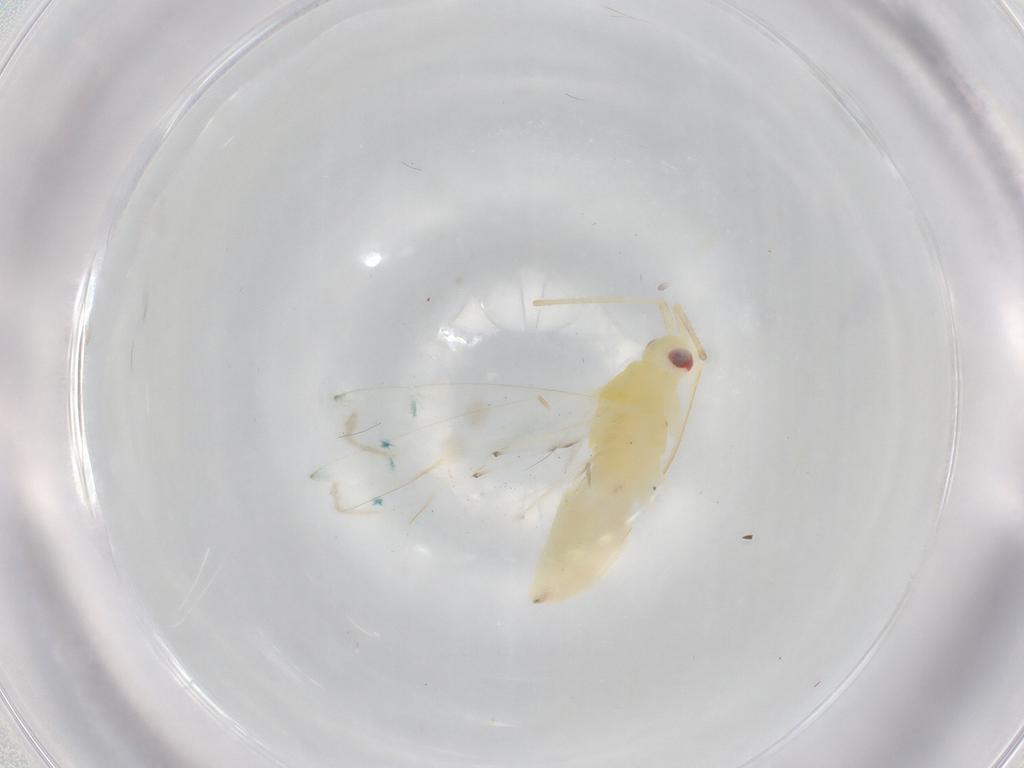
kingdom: Animalia
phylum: Arthropoda
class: Insecta
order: Hemiptera
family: Miridae
